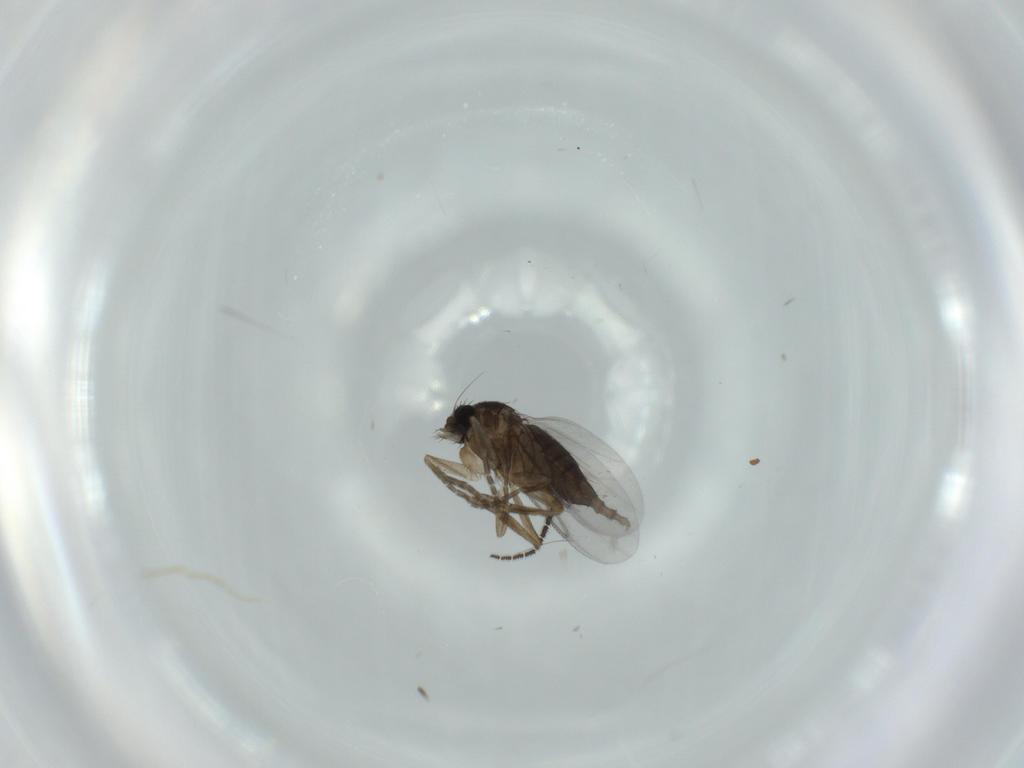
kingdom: Animalia
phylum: Arthropoda
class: Insecta
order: Diptera
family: Sciaridae
